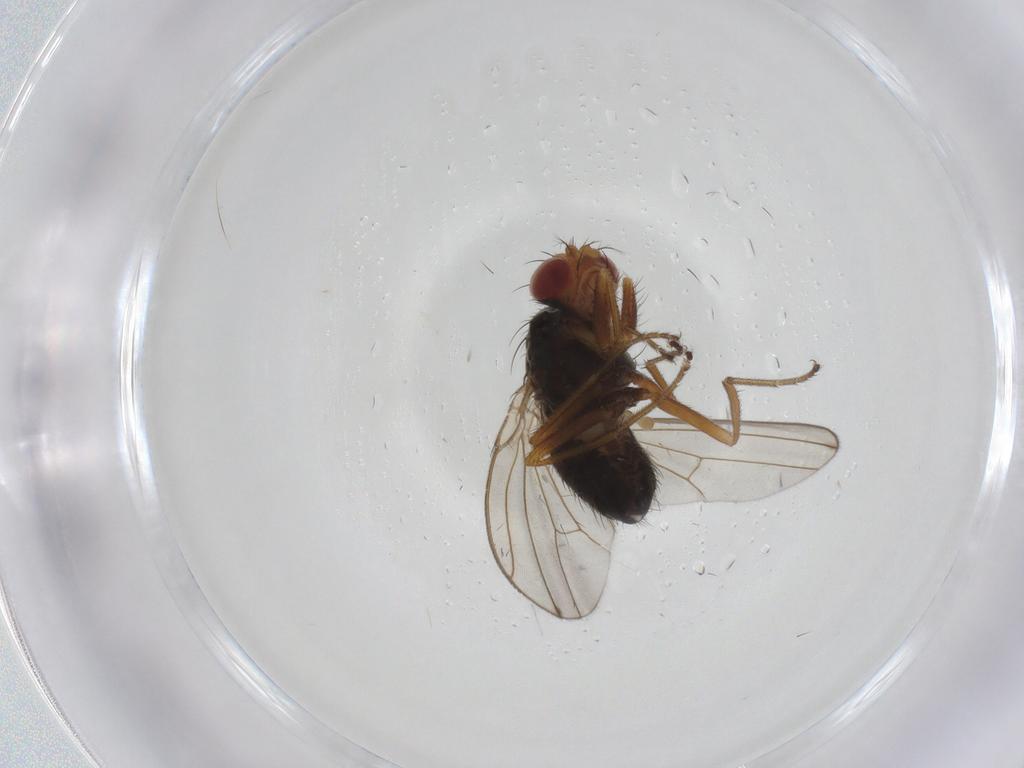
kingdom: Animalia
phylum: Arthropoda
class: Insecta
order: Diptera
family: Drosophilidae
